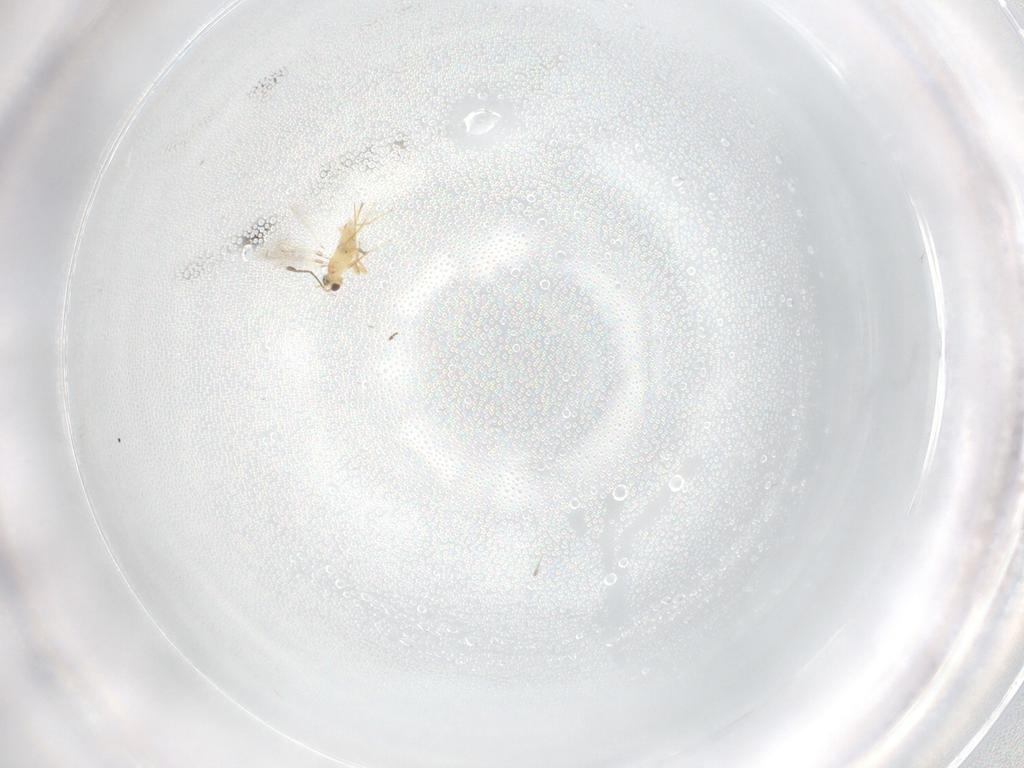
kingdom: Animalia
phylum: Arthropoda
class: Insecta
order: Hymenoptera
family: Mymaridae
